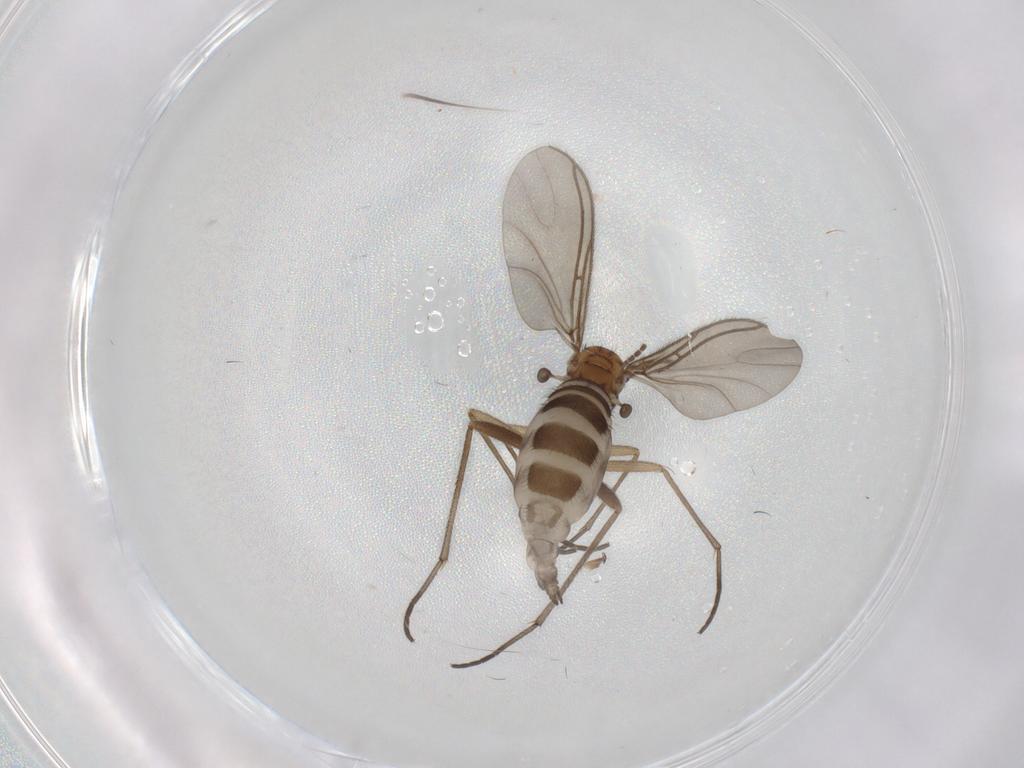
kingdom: Animalia
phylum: Arthropoda
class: Insecta
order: Diptera
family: Sciaridae
